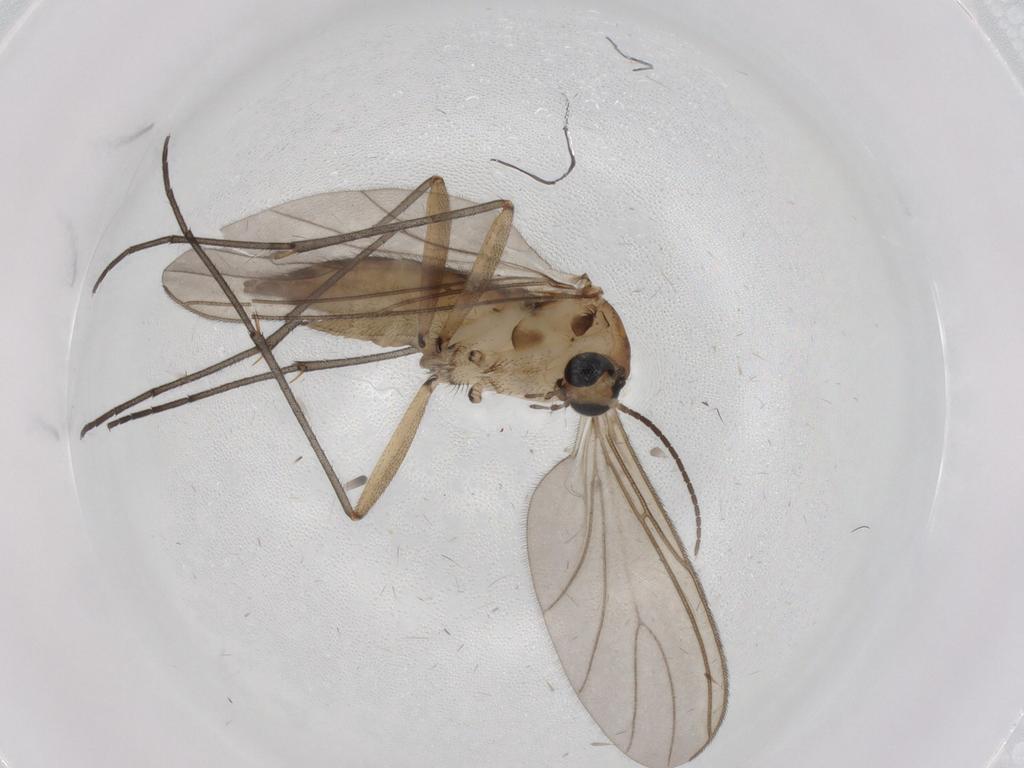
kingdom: Animalia
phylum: Arthropoda
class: Insecta
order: Diptera
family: Sciaridae
